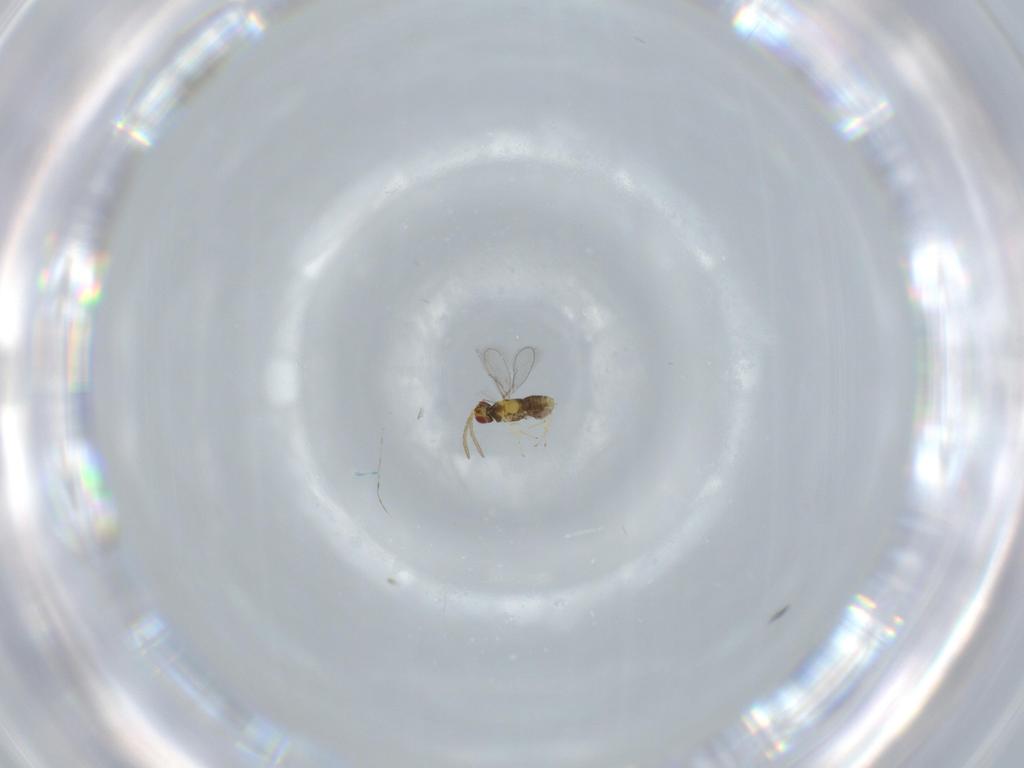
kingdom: Animalia
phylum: Arthropoda
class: Insecta
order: Hymenoptera
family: Aphelinidae
